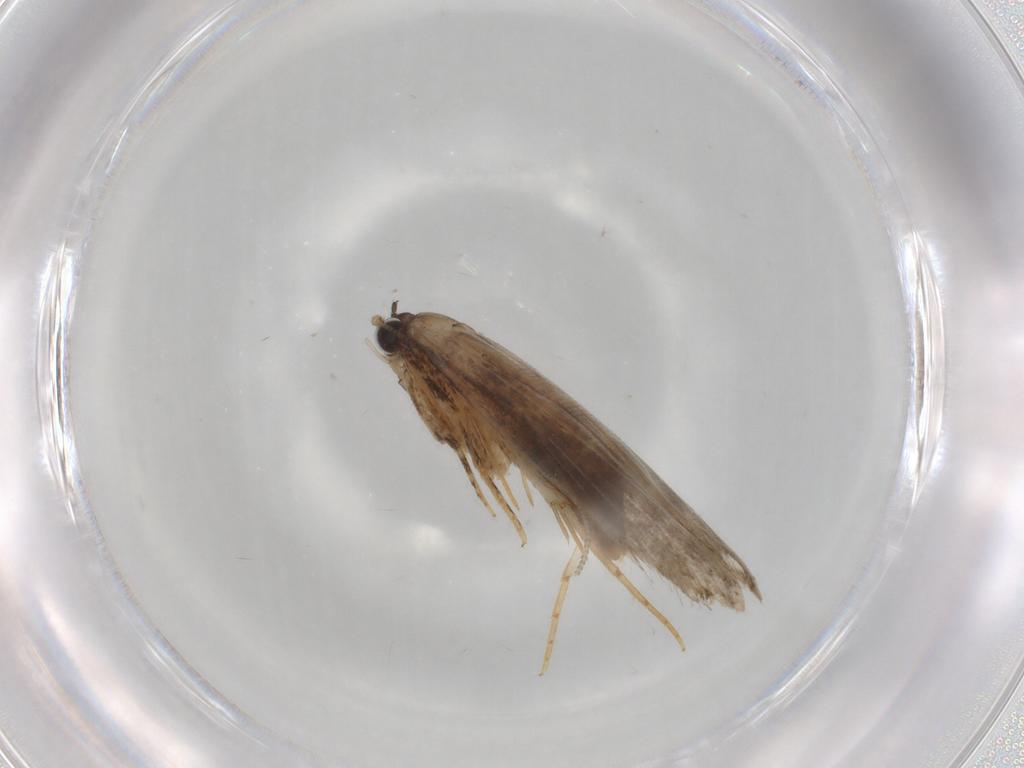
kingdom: Animalia
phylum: Arthropoda
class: Insecta
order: Lepidoptera
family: Tineidae
